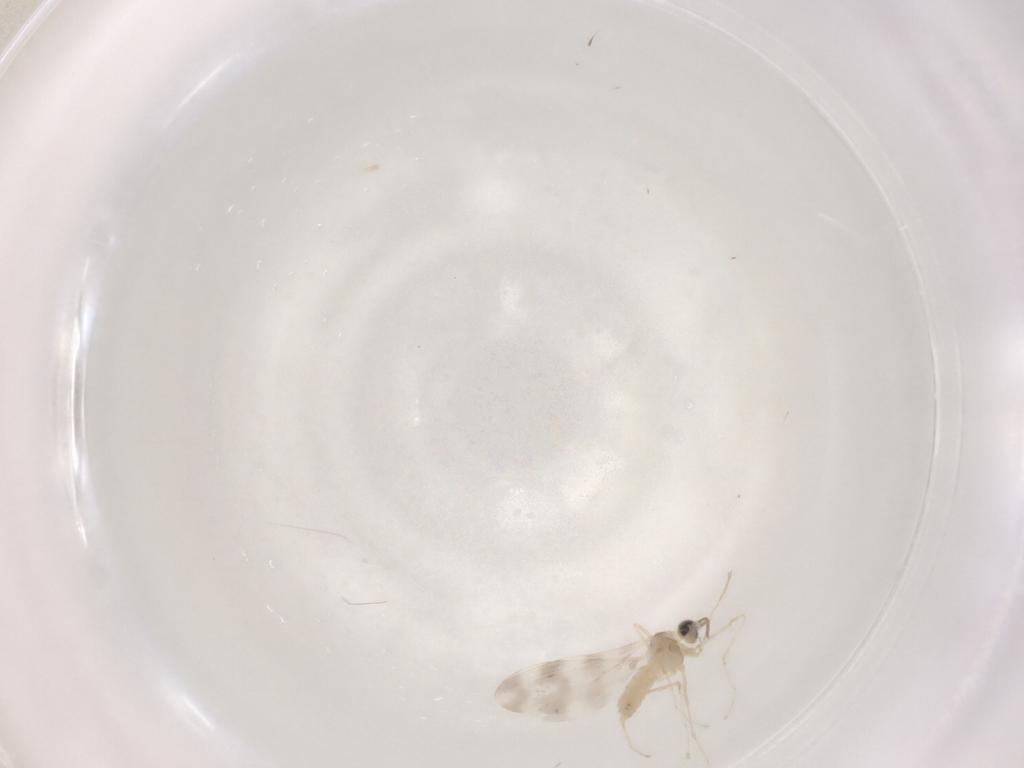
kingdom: Animalia
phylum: Arthropoda
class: Insecta
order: Diptera
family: Cecidomyiidae
